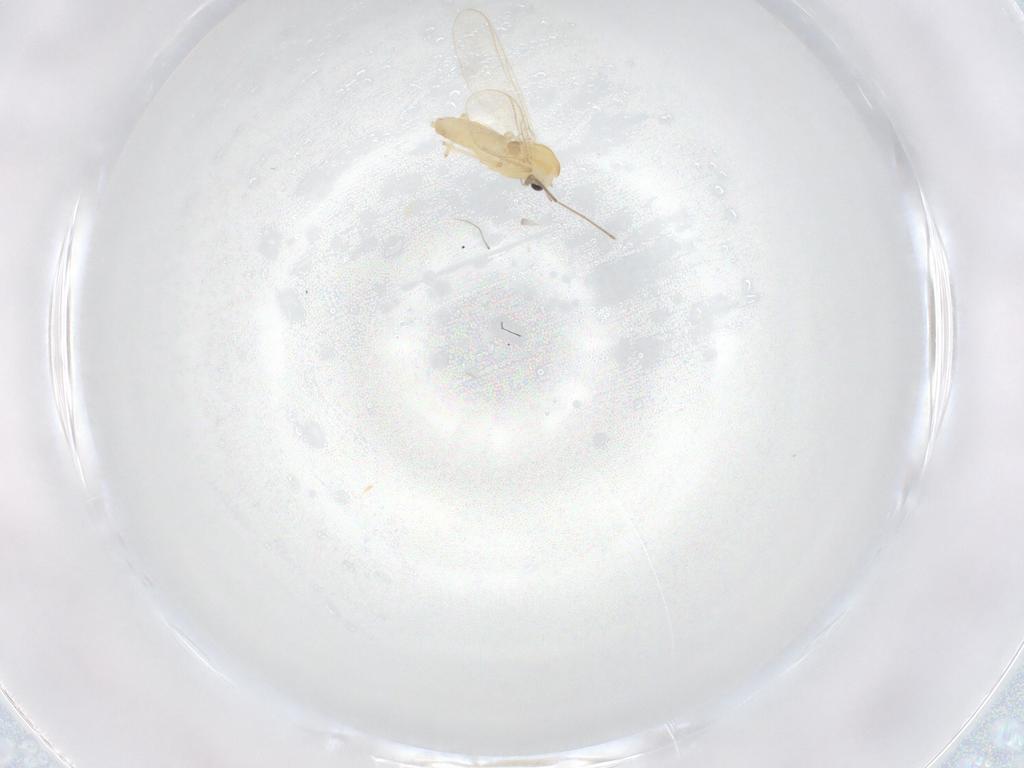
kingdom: Animalia
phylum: Arthropoda
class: Insecta
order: Diptera
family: Chironomidae
